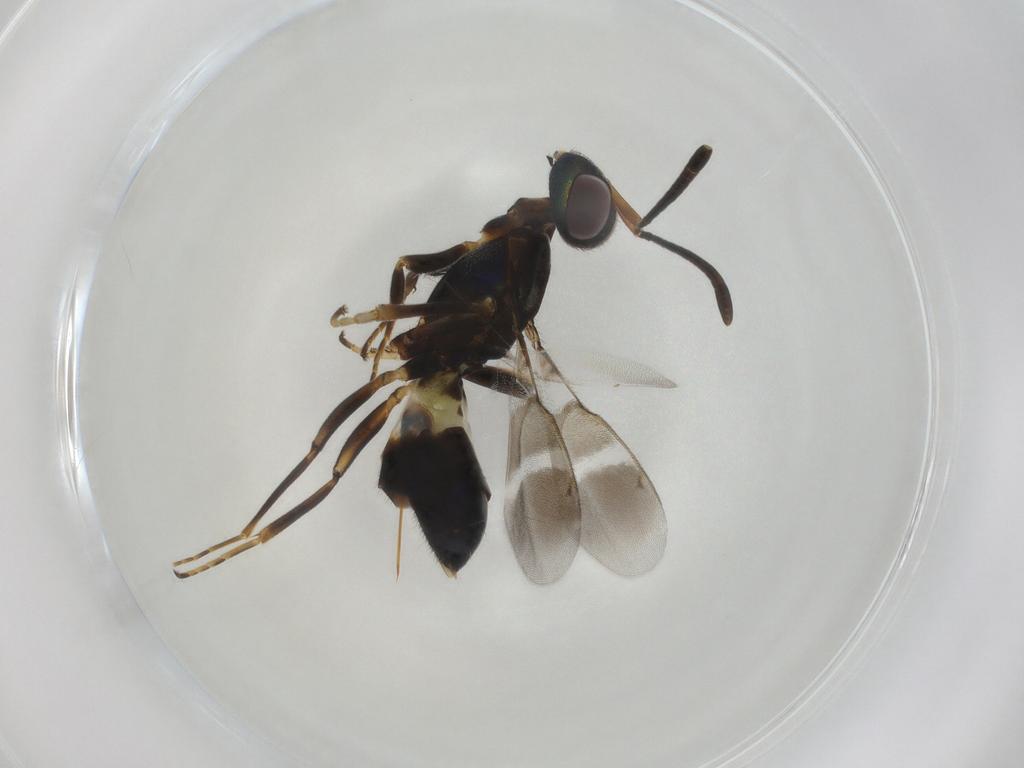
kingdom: Animalia
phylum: Arthropoda
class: Insecta
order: Hymenoptera
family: Eupelmidae
